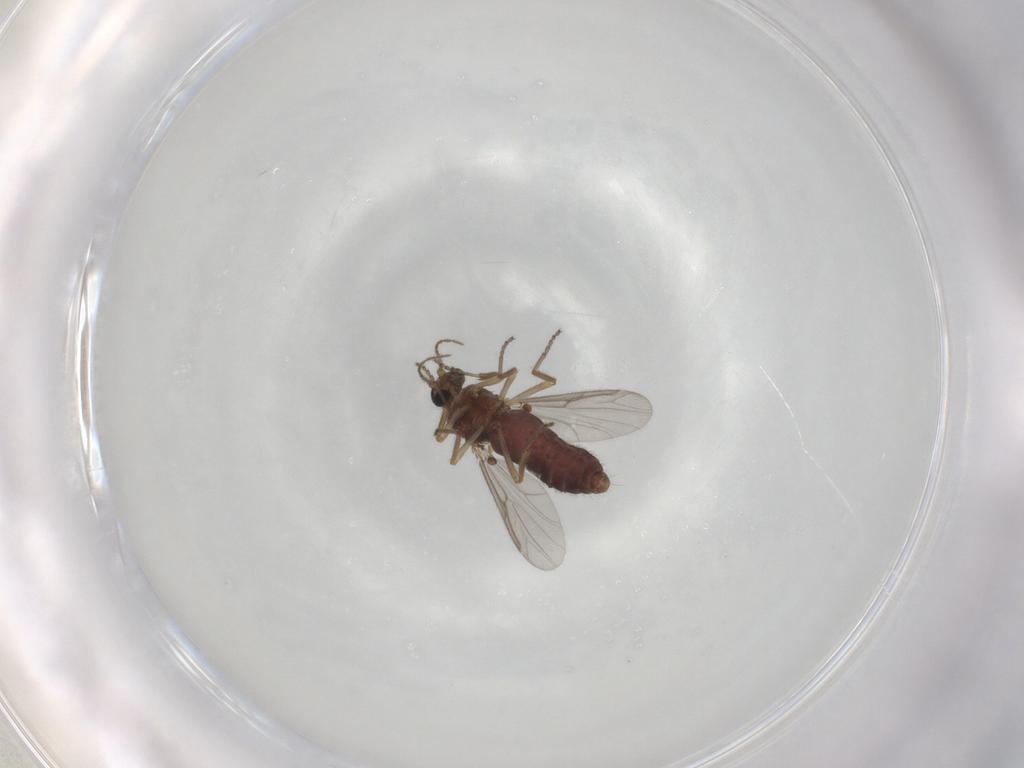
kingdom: Animalia
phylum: Arthropoda
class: Insecta
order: Diptera
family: Ceratopogonidae
